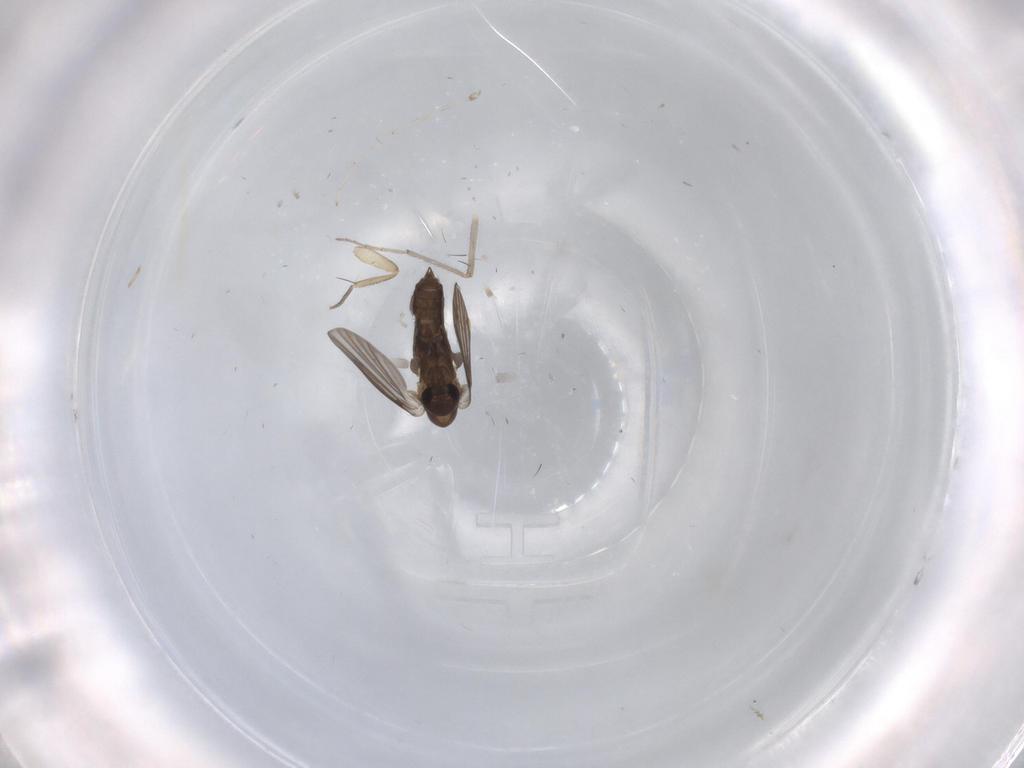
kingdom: Animalia
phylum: Arthropoda
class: Insecta
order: Diptera
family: Phoridae
